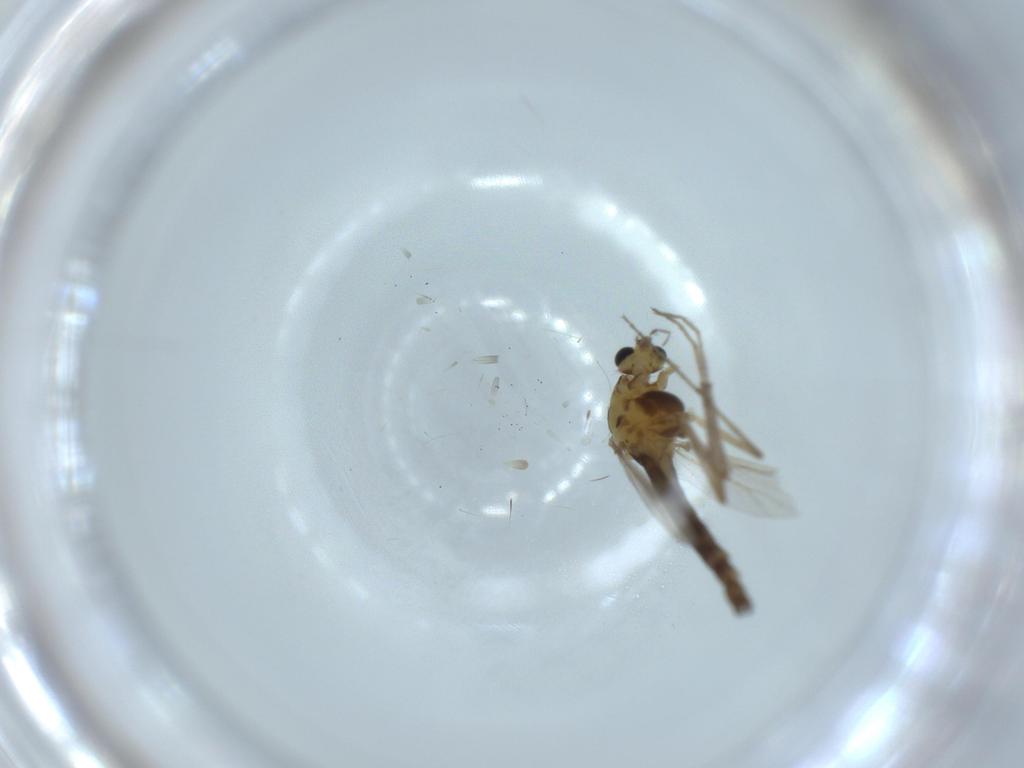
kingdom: Animalia
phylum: Arthropoda
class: Insecta
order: Diptera
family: Chironomidae
